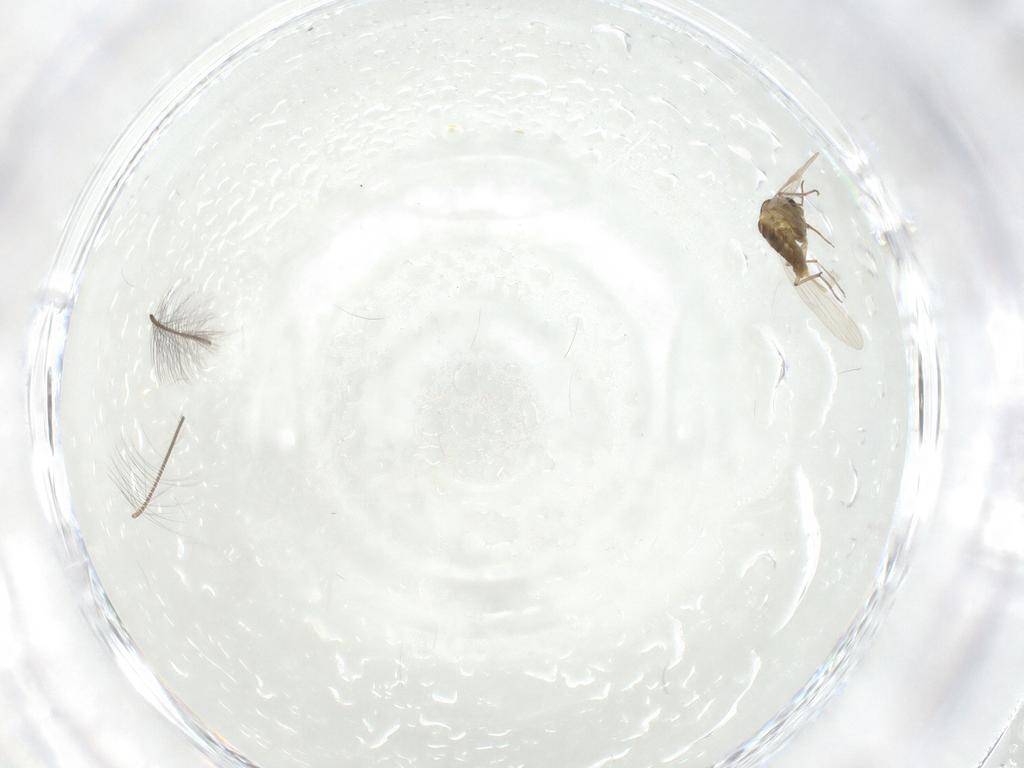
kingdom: Animalia
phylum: Arthropoda
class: Insecta
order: Diptera
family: Chironomidae
